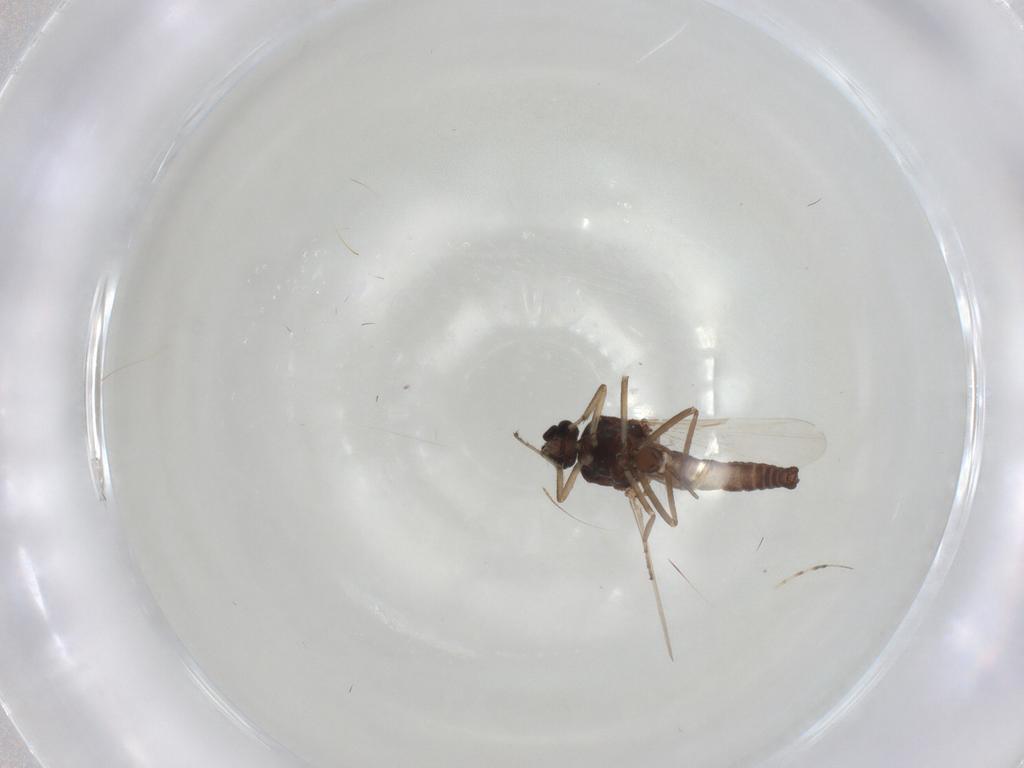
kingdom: Animalia
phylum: Arthropoda
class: Insecta
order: Diptera
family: Ceratopogonidae
